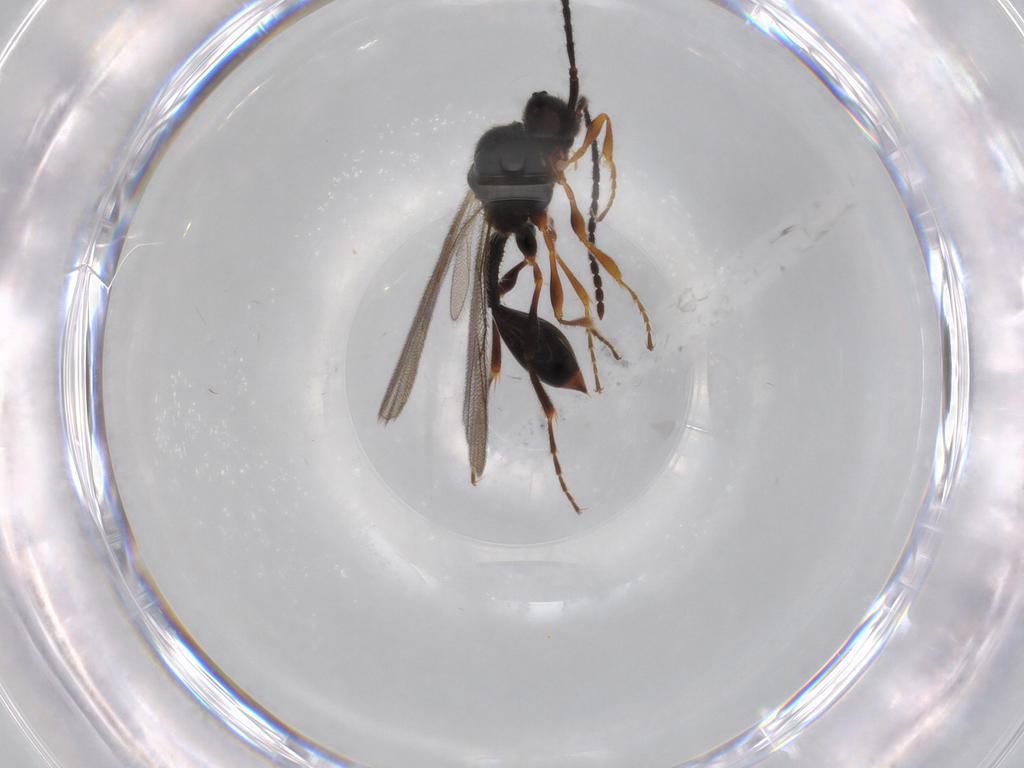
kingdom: Animalia
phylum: Arthropoda
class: Insecta
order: Hymenoptera
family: Diapriidae
